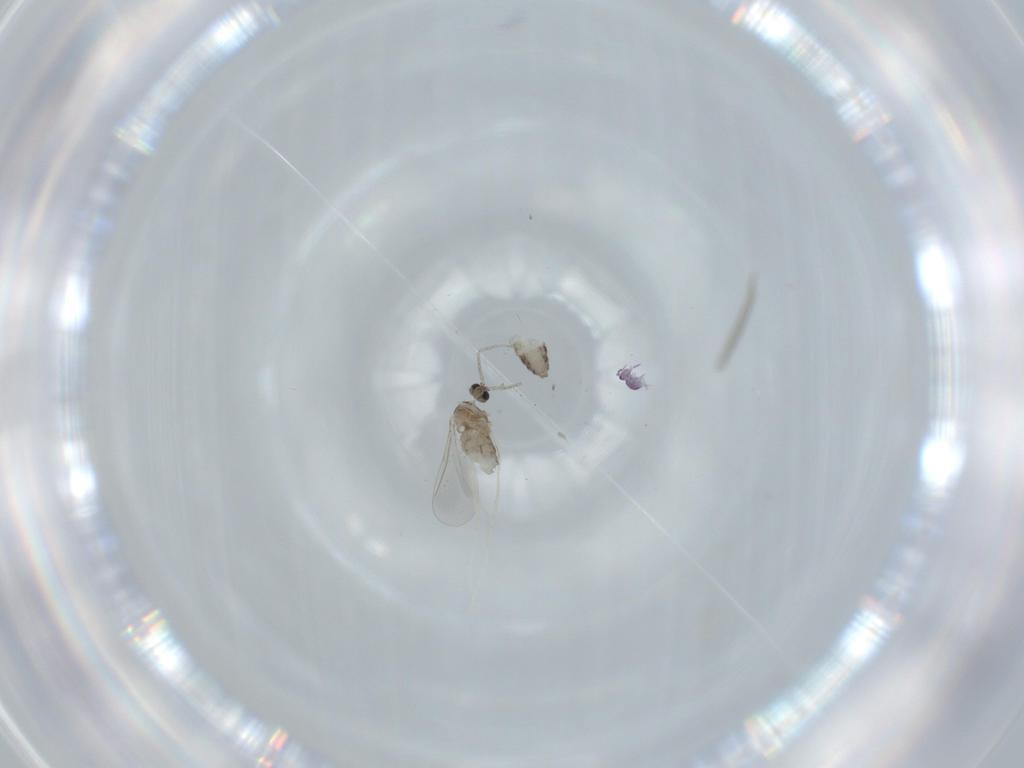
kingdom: Animalia
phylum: Arthropoda
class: Insecta
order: Diptera
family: Cecidomyiidae
